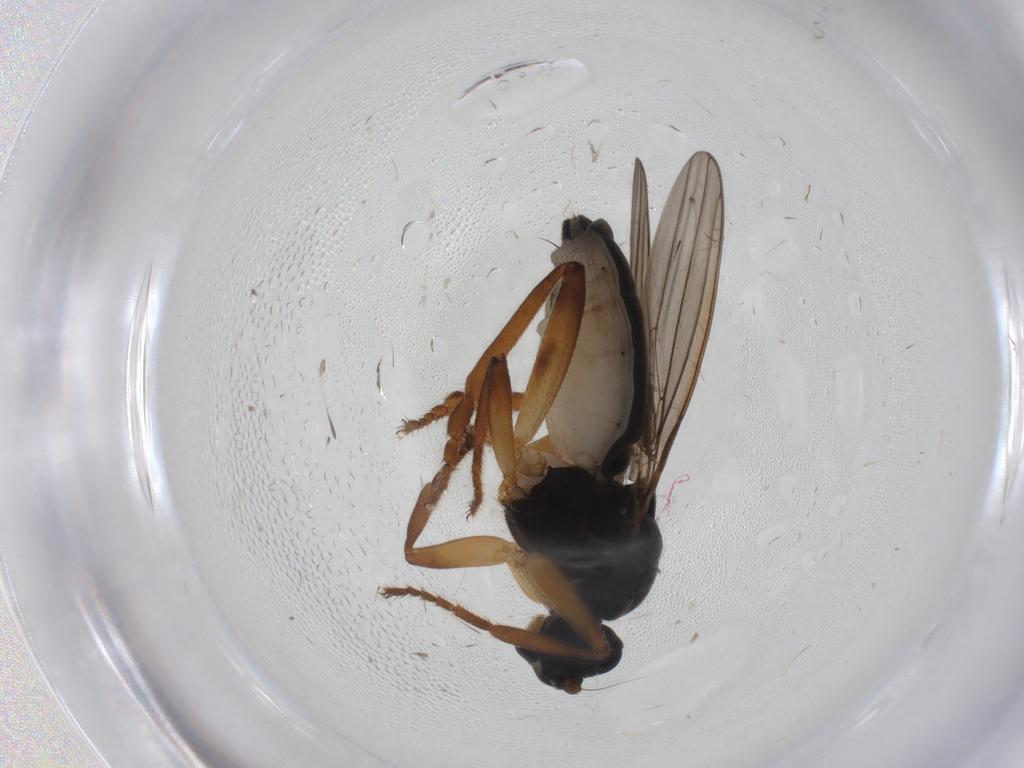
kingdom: Animalia
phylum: Arthropoda
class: Insecta
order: Diptera
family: Sphaeroceridae
